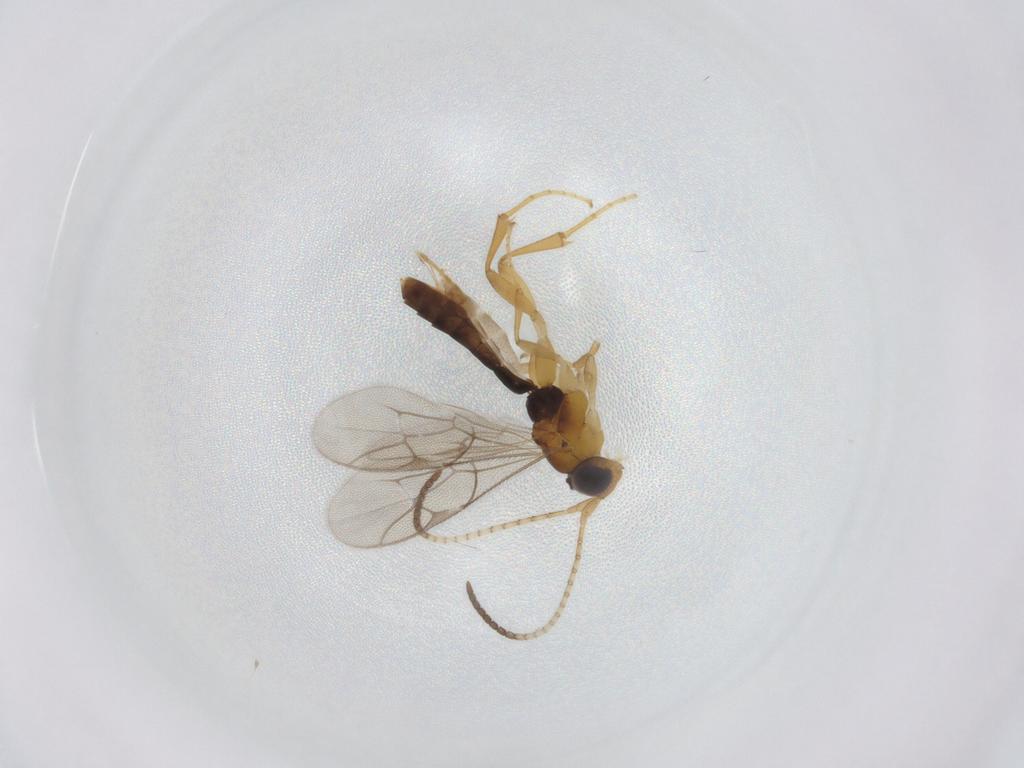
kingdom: Animalia
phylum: Arthropoda
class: Insecta
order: Hymenoptera
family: Ichneumonidae
